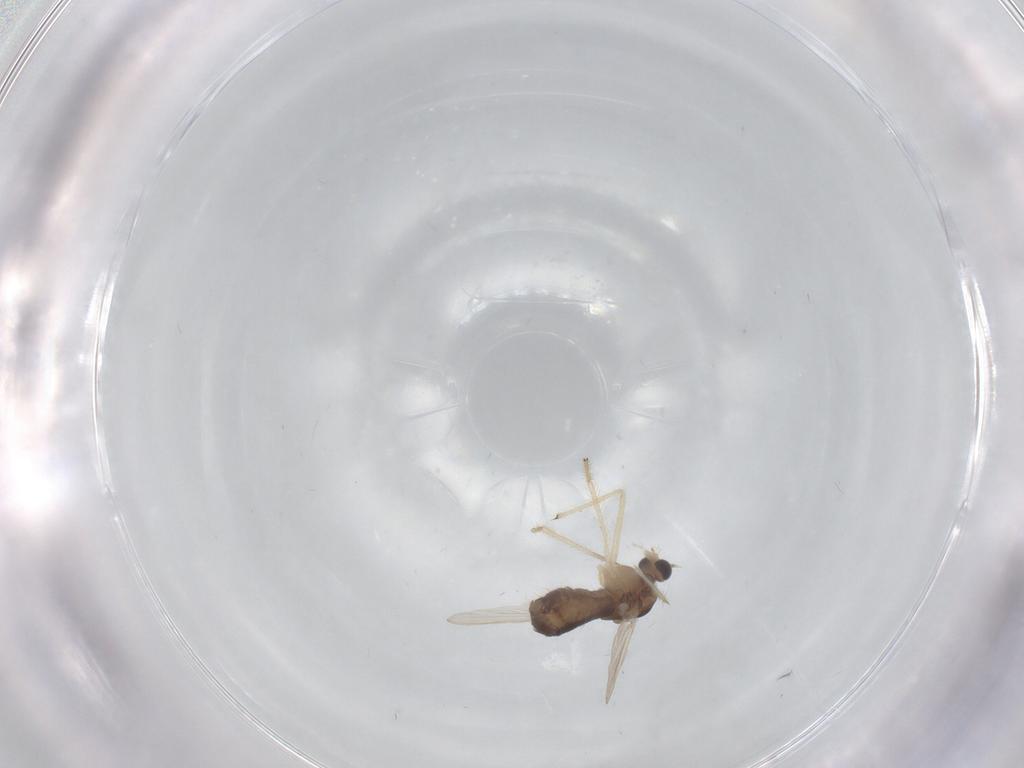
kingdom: Animalia
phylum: Arthropoda
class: Insecta
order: Diptera
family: Chironomidae
